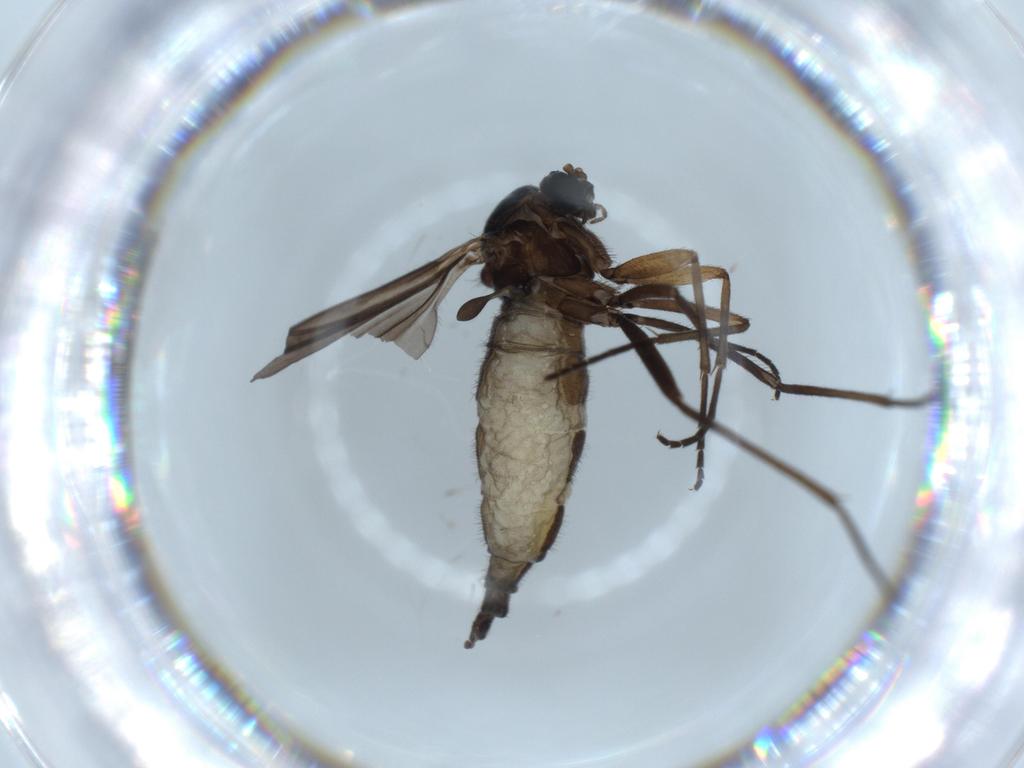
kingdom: Animalia
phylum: Arthropoda
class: Insecta
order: Diptera
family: Sciaridae
